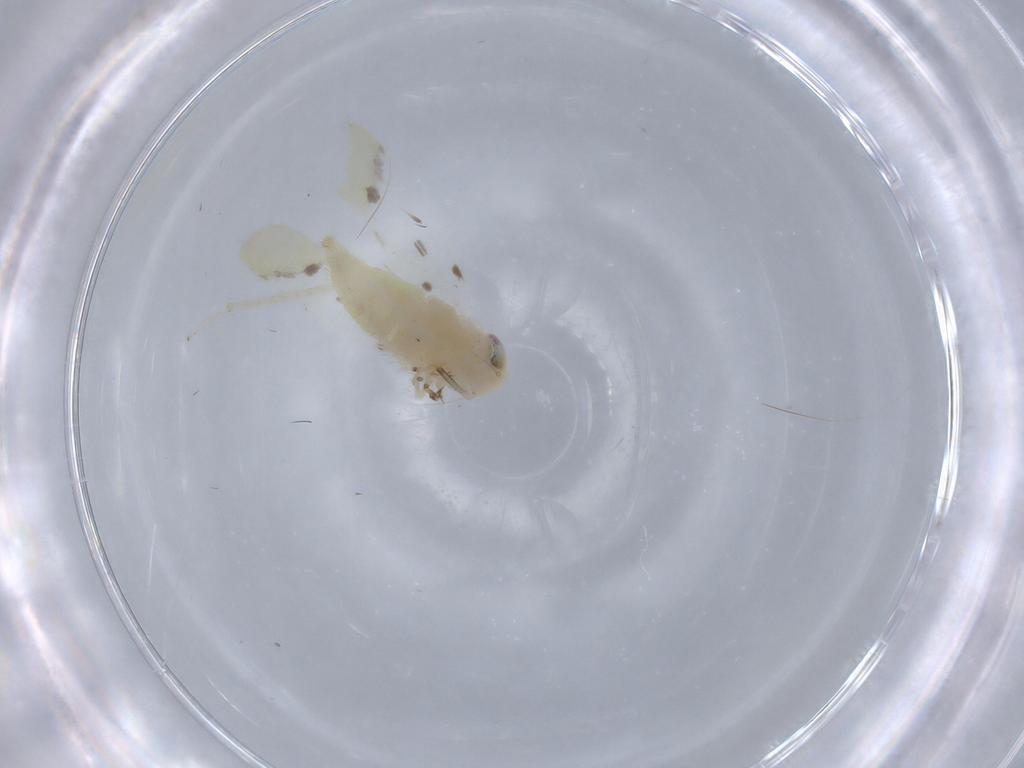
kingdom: Animalia
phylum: Arthropoda
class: Insecta
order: Hemiptera
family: Cicadellidae
